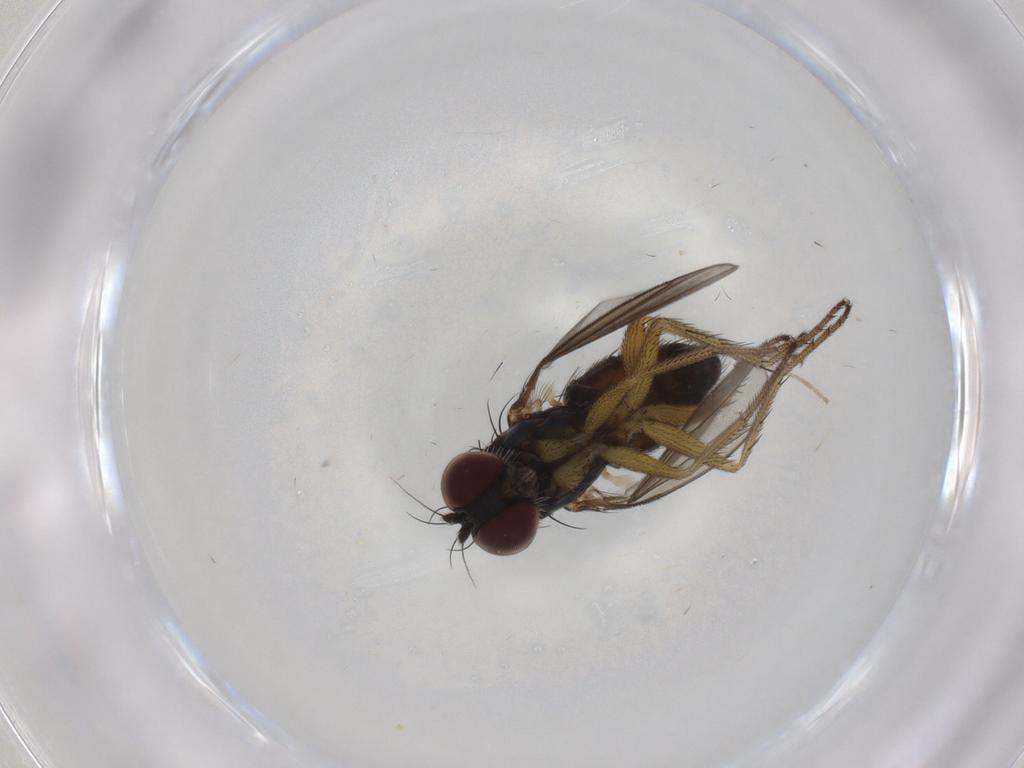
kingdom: Animalia
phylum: Arthropoda
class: Insecta
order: Diptera
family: Dolichopodidae
